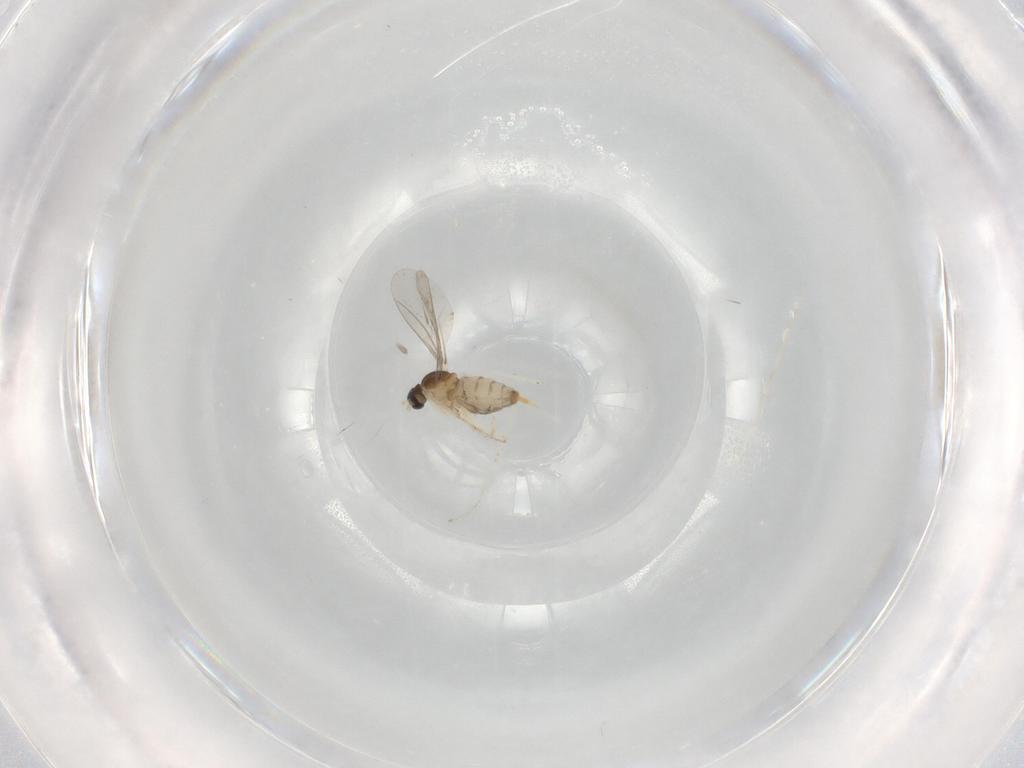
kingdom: Animalia
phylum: Arthropoda
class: Insecta
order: Diptera
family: Cecidomyiidae
